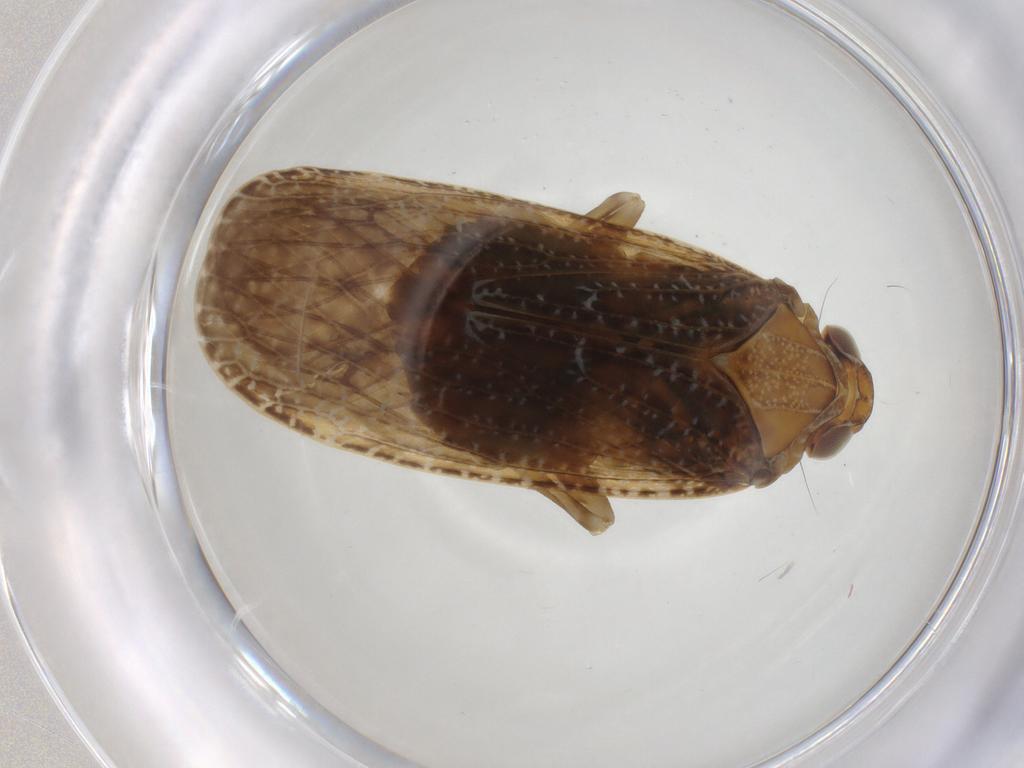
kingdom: Animalia
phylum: Arthropoda
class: Insecta
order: Hemiptera
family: Achilidae
